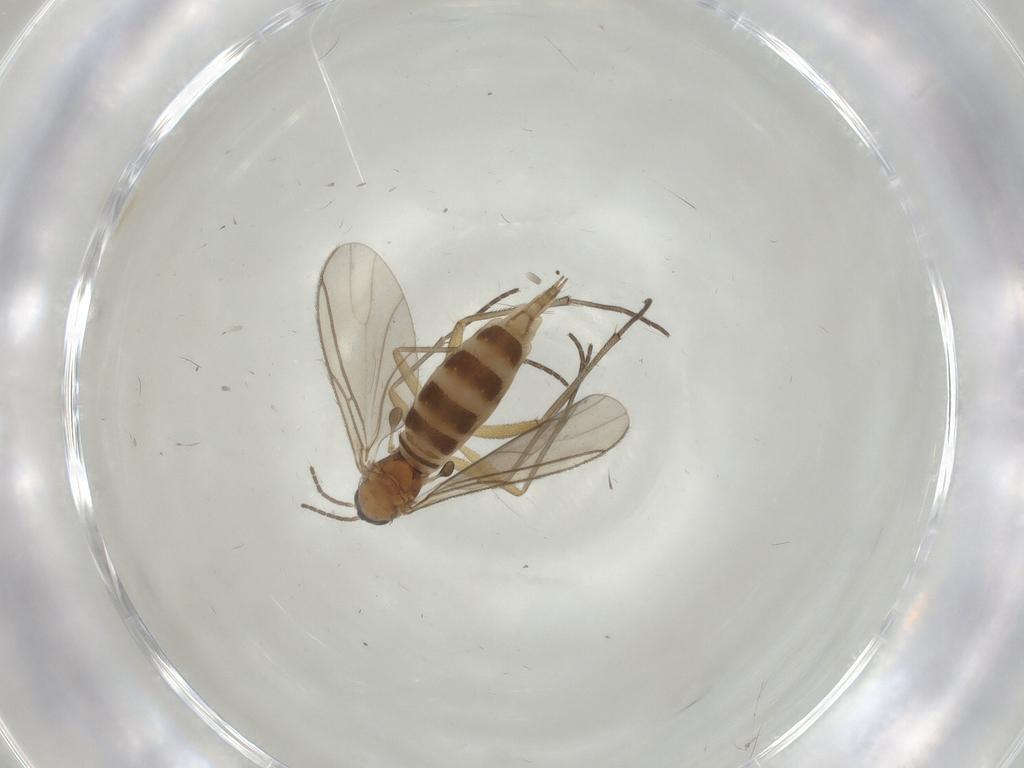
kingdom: Animalia
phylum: Arthropoda
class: Insecta
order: Diptera
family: Sciaridae
